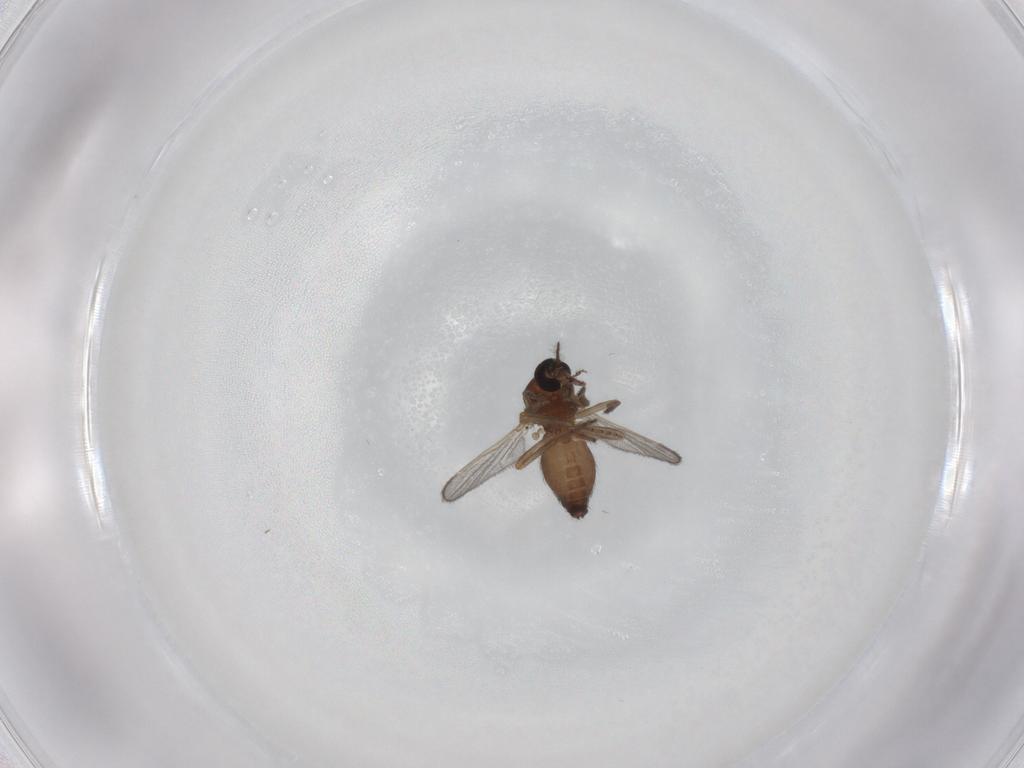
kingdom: Animalia
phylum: Arthropoda
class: Insecta
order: Diptera
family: Ceratopogonidae
